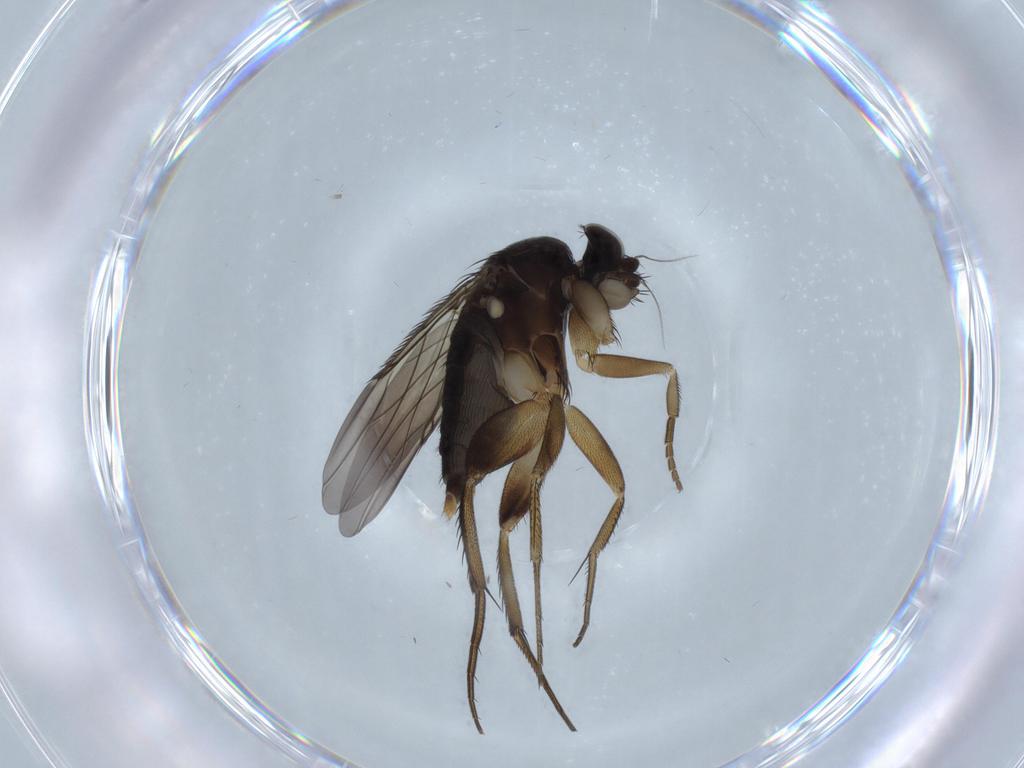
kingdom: Animalia
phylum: Arthropoda
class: Insecta
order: Diptera
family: Phoridae
